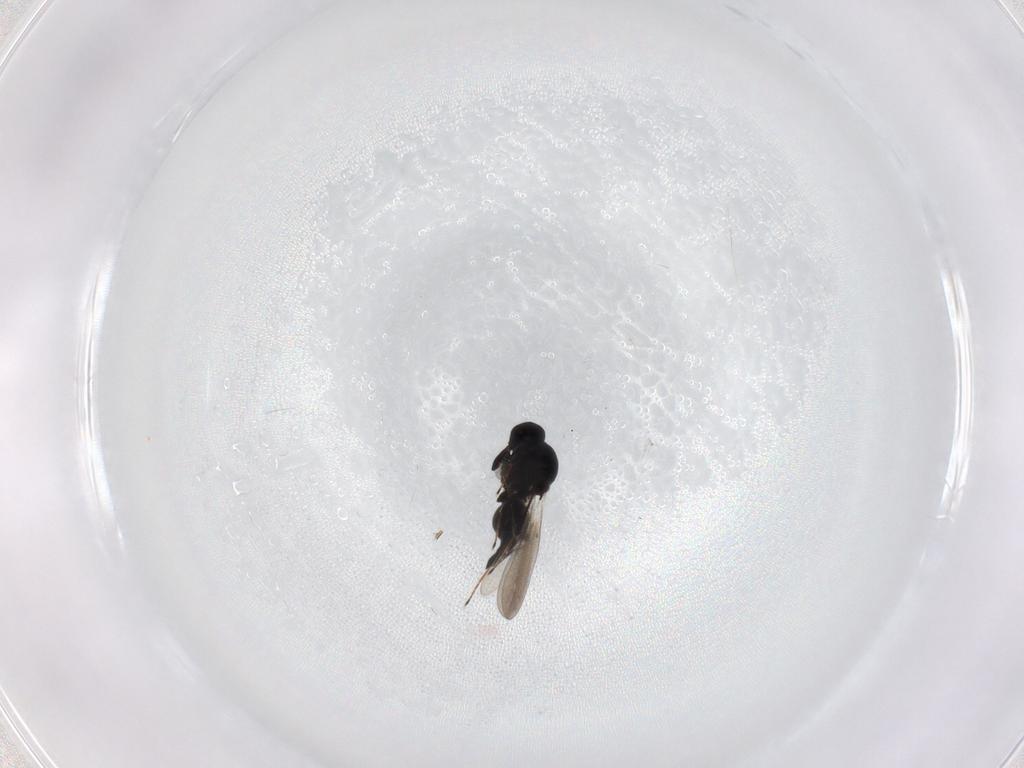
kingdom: Animalia
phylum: Arthropoda
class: Insecta
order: Hymenoptera
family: Platygastridae
